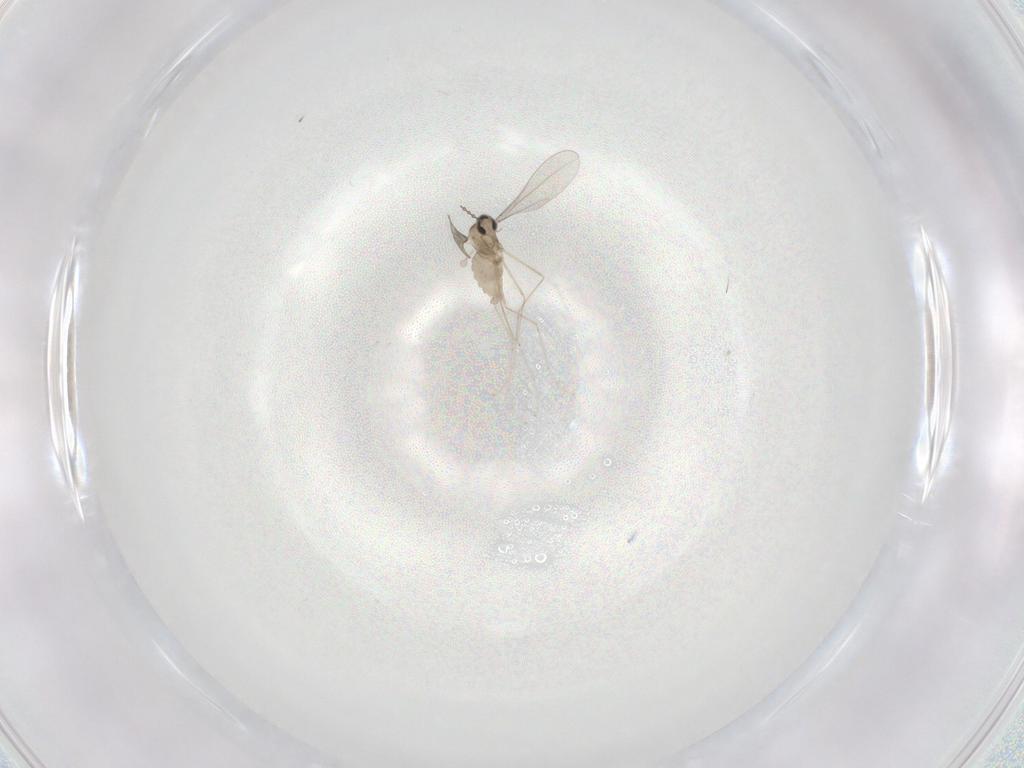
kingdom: Animalia
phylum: Arthropoda
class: Insecta
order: Diptera
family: Cecidomyiidae
